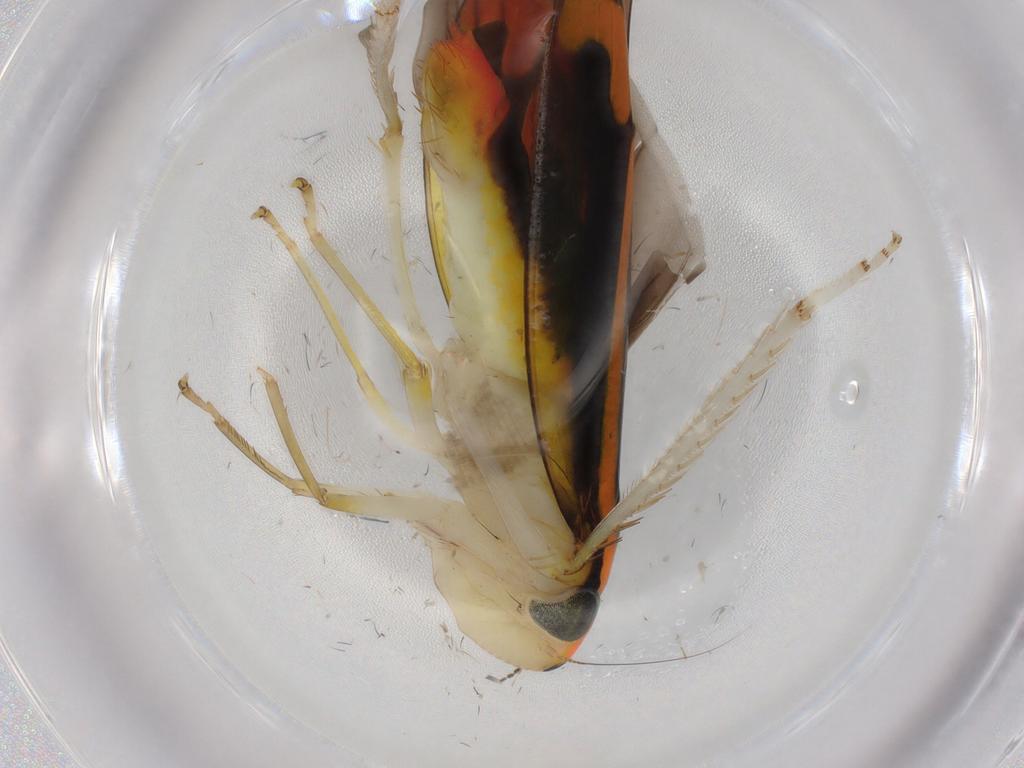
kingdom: Animalia
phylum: Arthropoda
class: Insecta
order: Hemiptera
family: Cicadellidae
